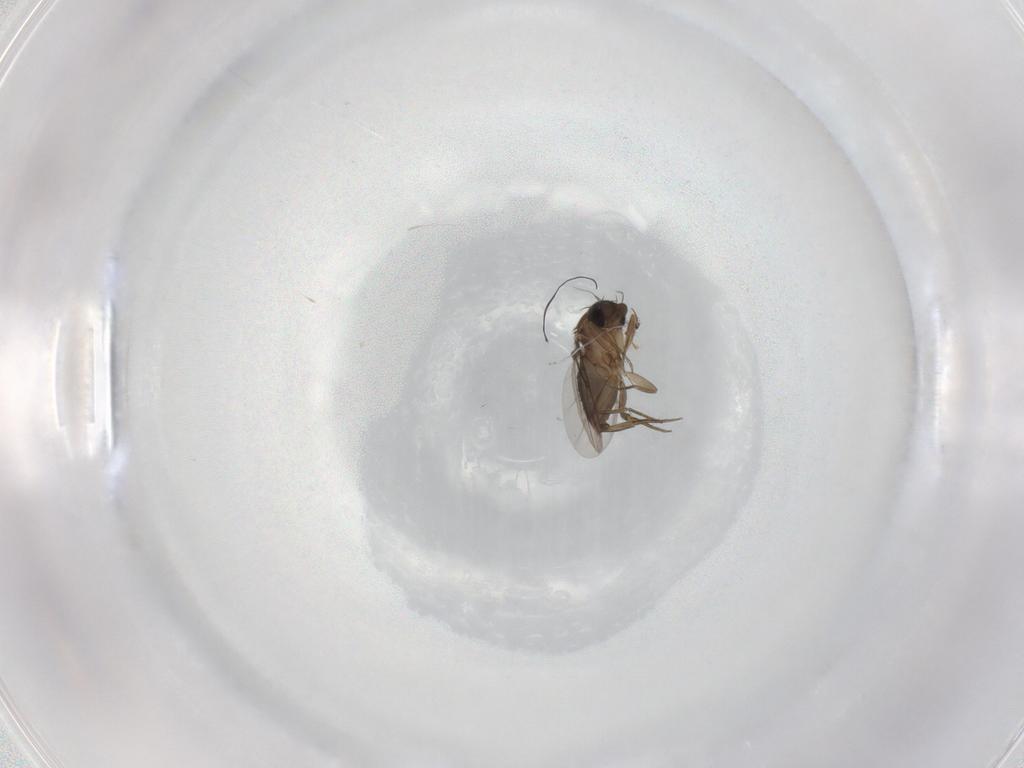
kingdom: Animalia
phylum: Arthropoda
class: Insecta
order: Diptera
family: Phoridae
